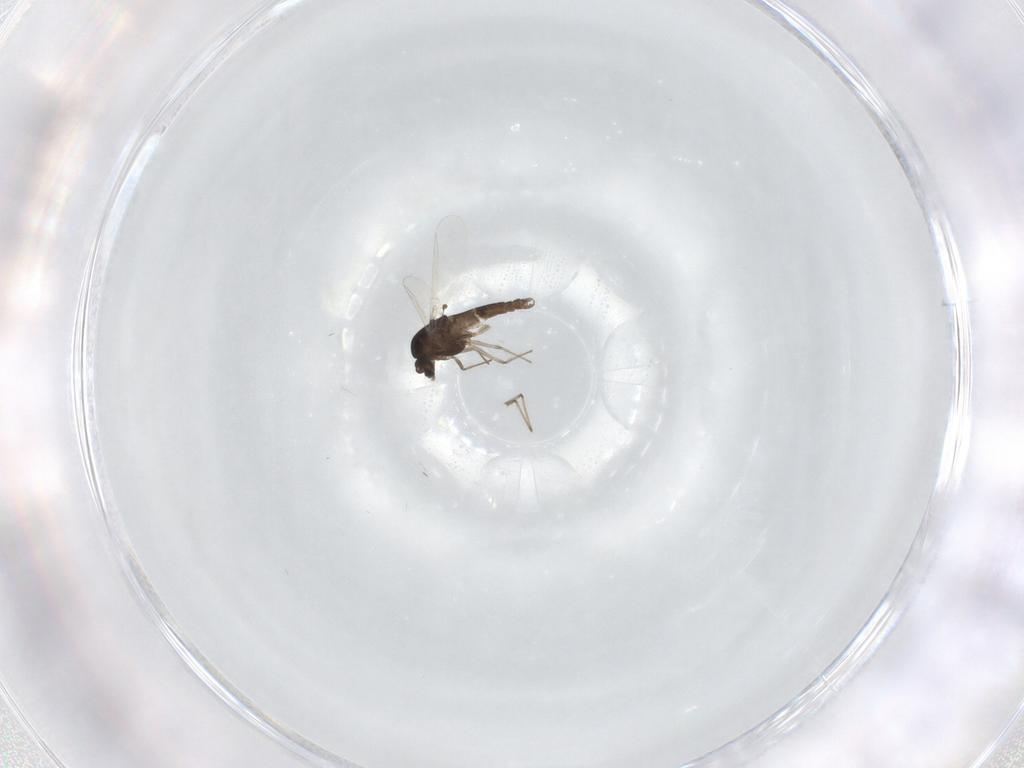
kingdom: Animalia
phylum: Arthropoda
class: Insecta
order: Diptera
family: Chironomidae
